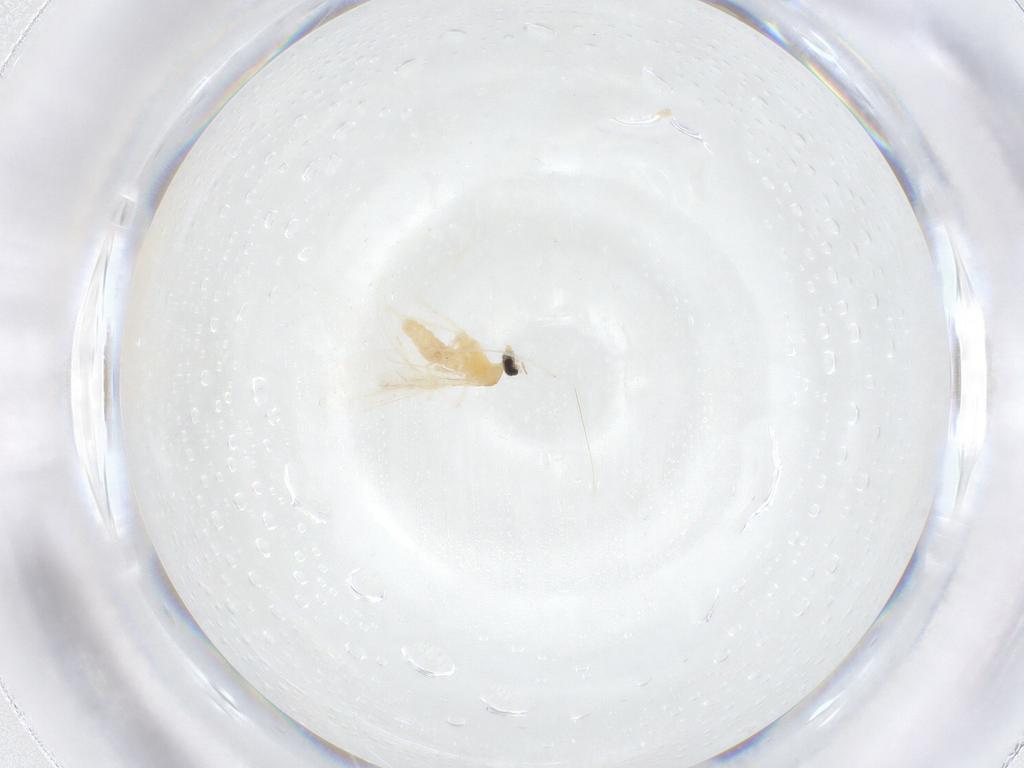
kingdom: Animalia
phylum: Arthropoda
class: Insecta
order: Diptera
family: Cecidomyiidae
